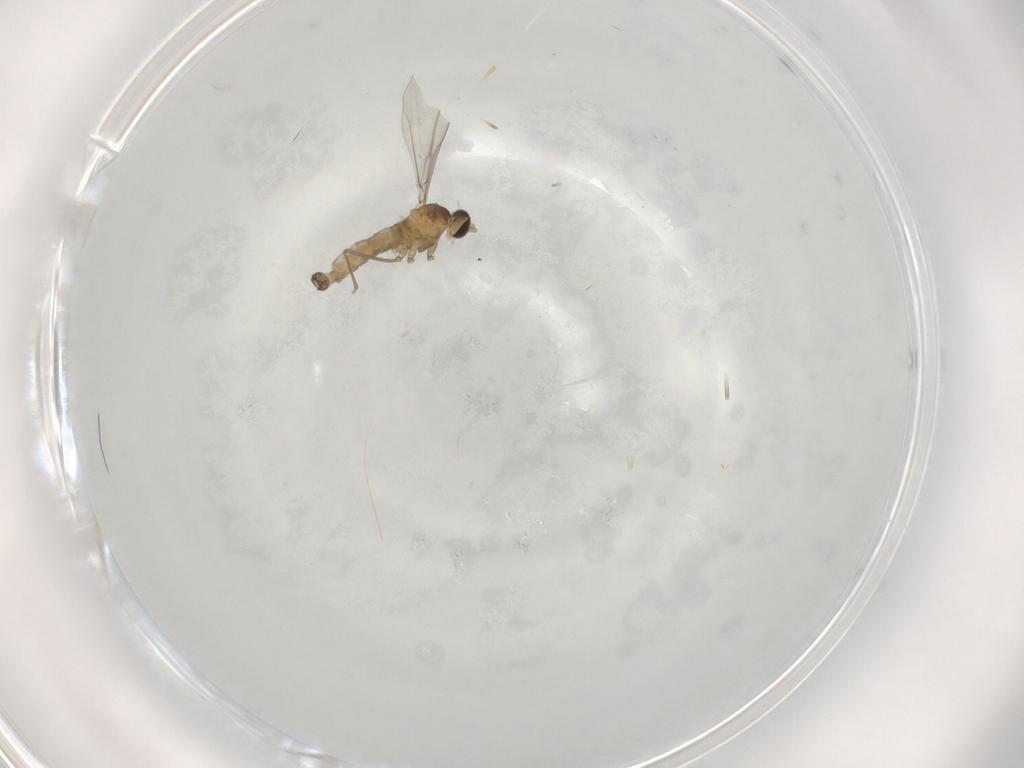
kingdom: Animalia
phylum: Arthropoda
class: Insecta
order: Diptera
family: Cecidomyiidae
